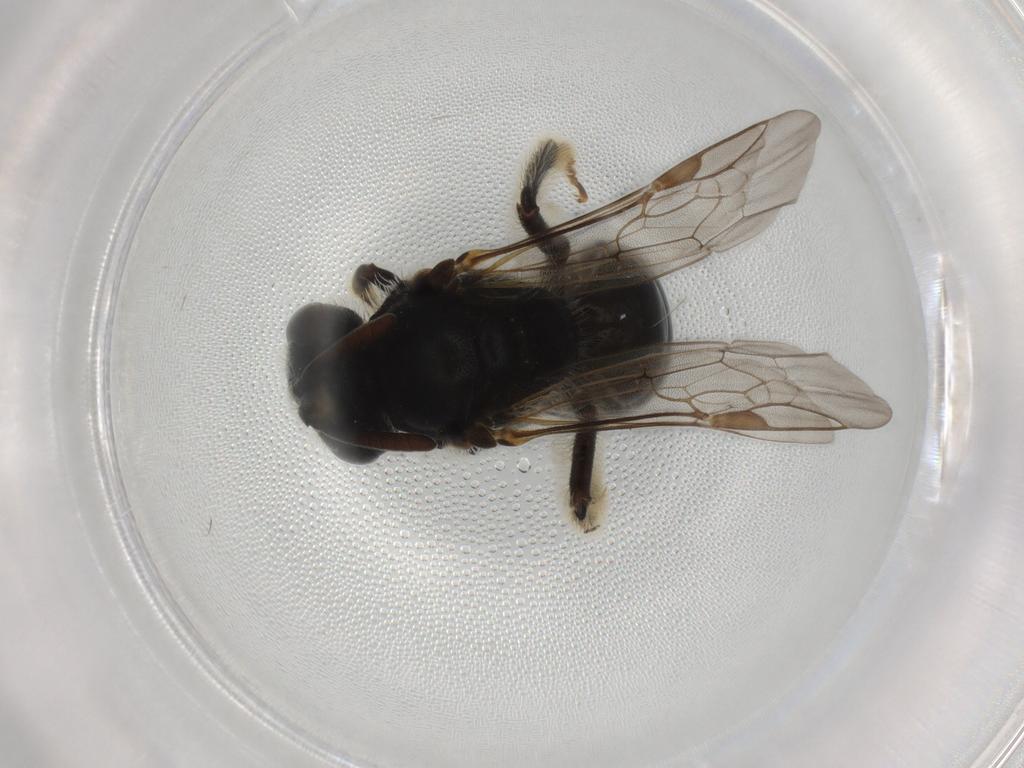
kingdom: Animalia
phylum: Arthropoda
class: Insecta
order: Hymenoptera
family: Halictidae
